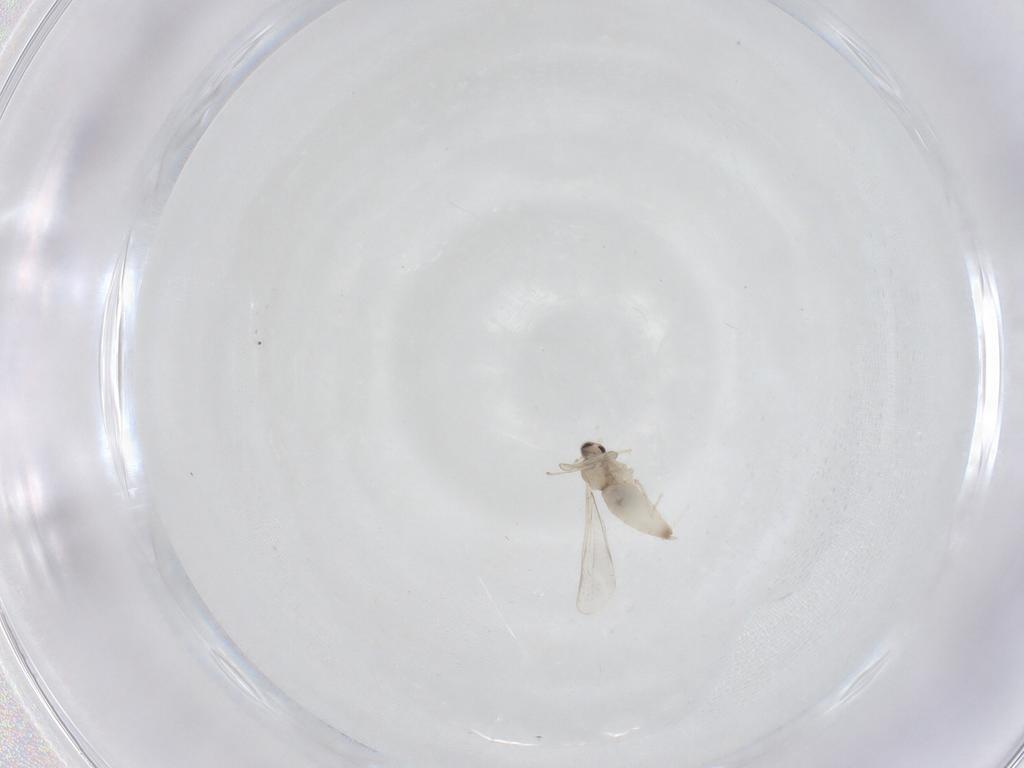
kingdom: Animalia
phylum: Arthropoda
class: Insecta
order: Diptera
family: Cecidomyiidae
